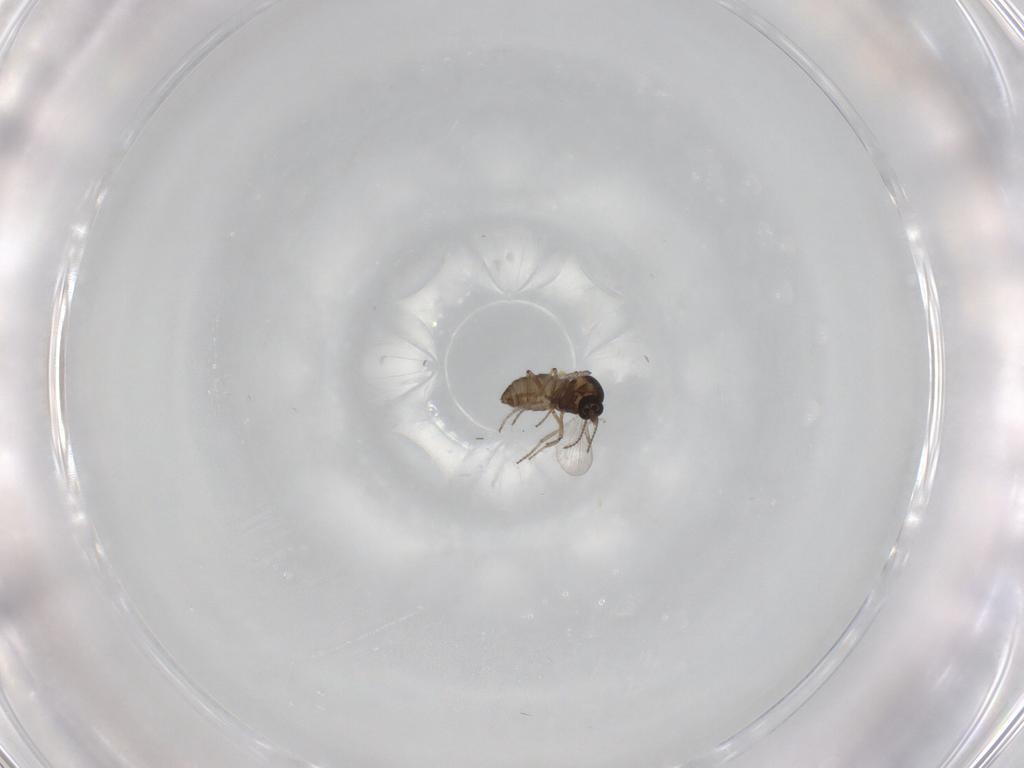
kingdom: Animalia
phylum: Arthropoda
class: Insecta
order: Diptera
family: Ceratopogonidae
